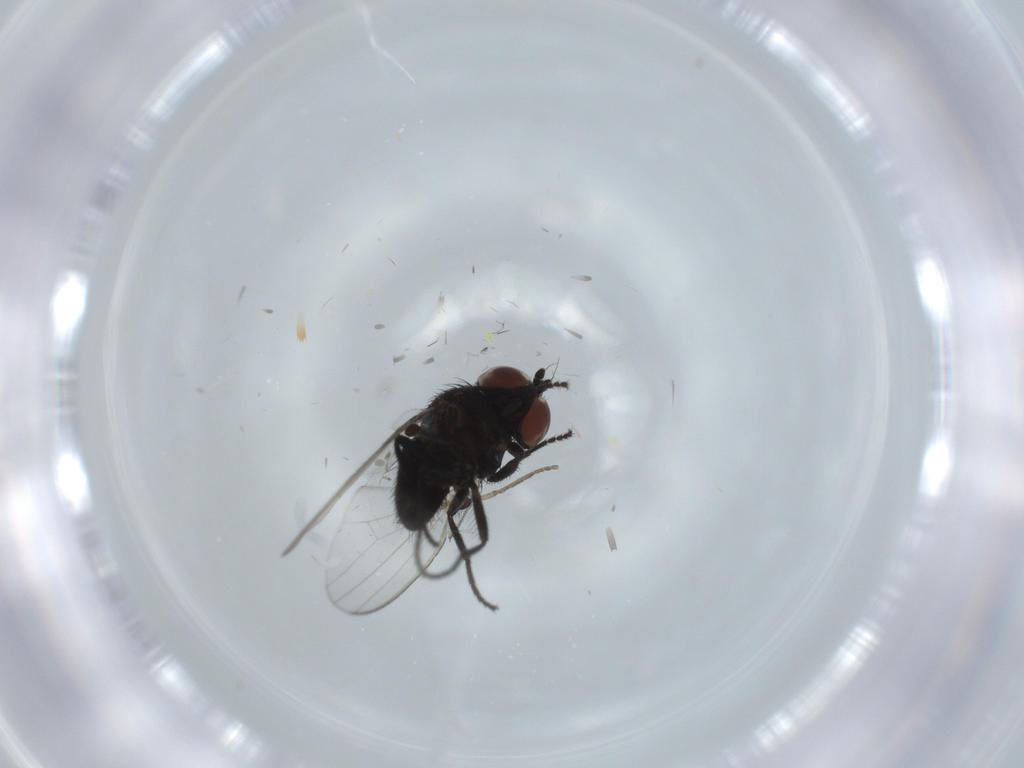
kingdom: Animalia
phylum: Arthropoda
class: Insecta
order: Diptera
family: Milichiidae
